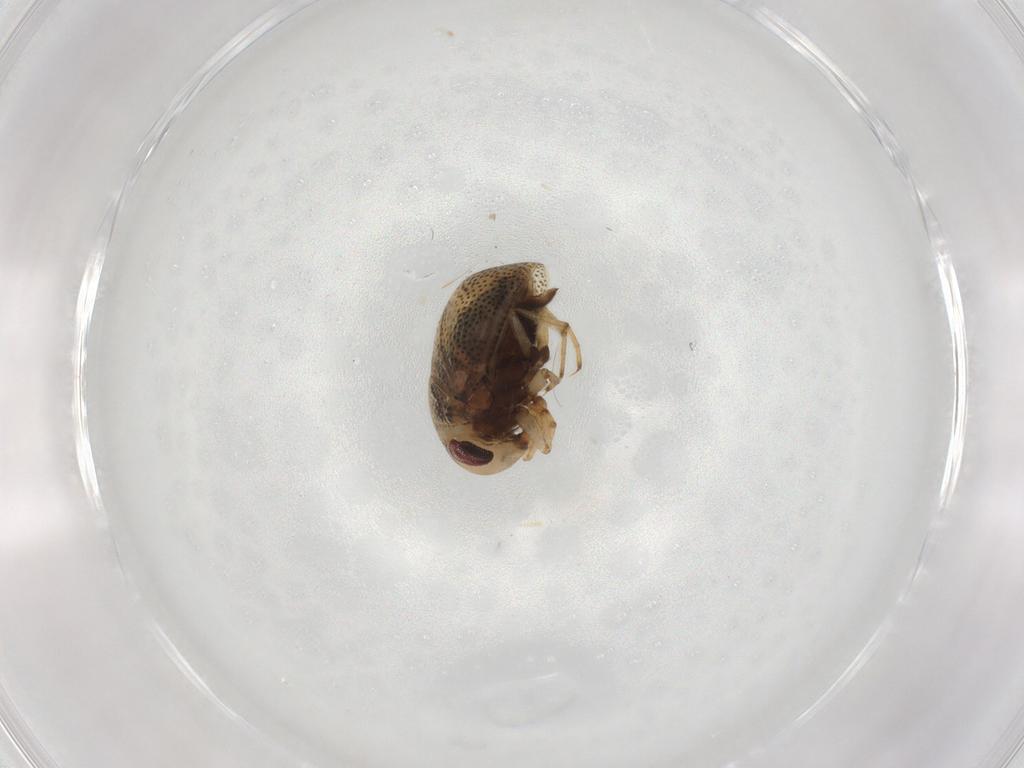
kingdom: Animalia
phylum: Arthropoda
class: Insecta
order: Hemiptera
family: Pleidae
